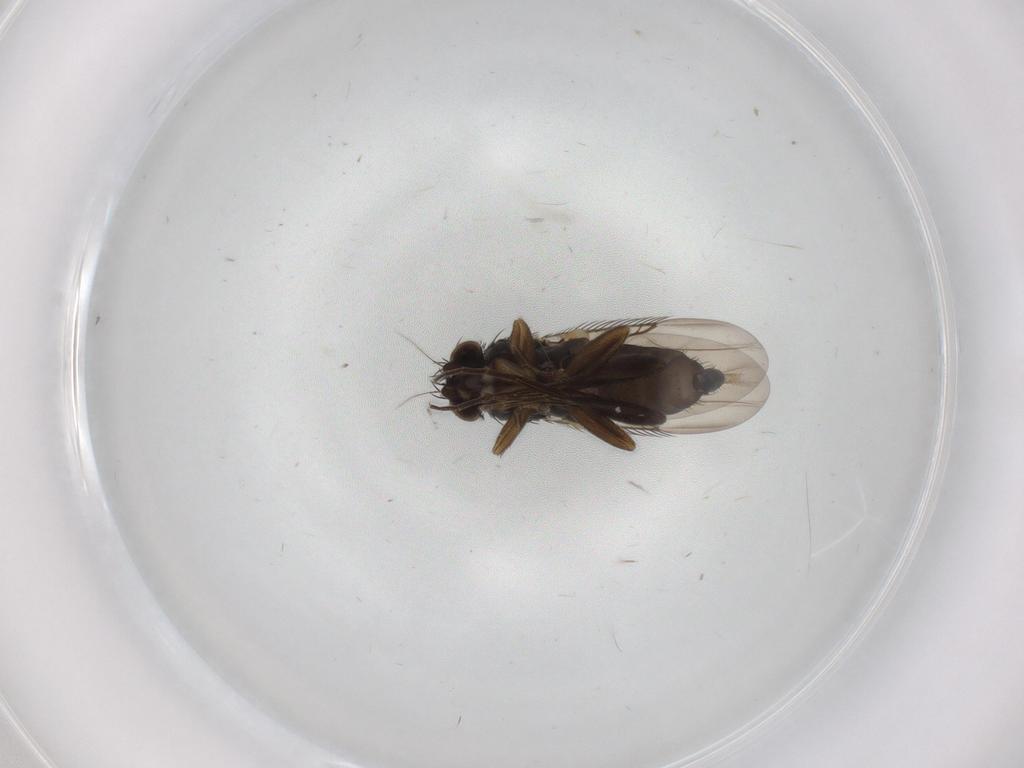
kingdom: Animalia
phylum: Arthropoda
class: Insecta
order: Diptera
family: Phoridae
